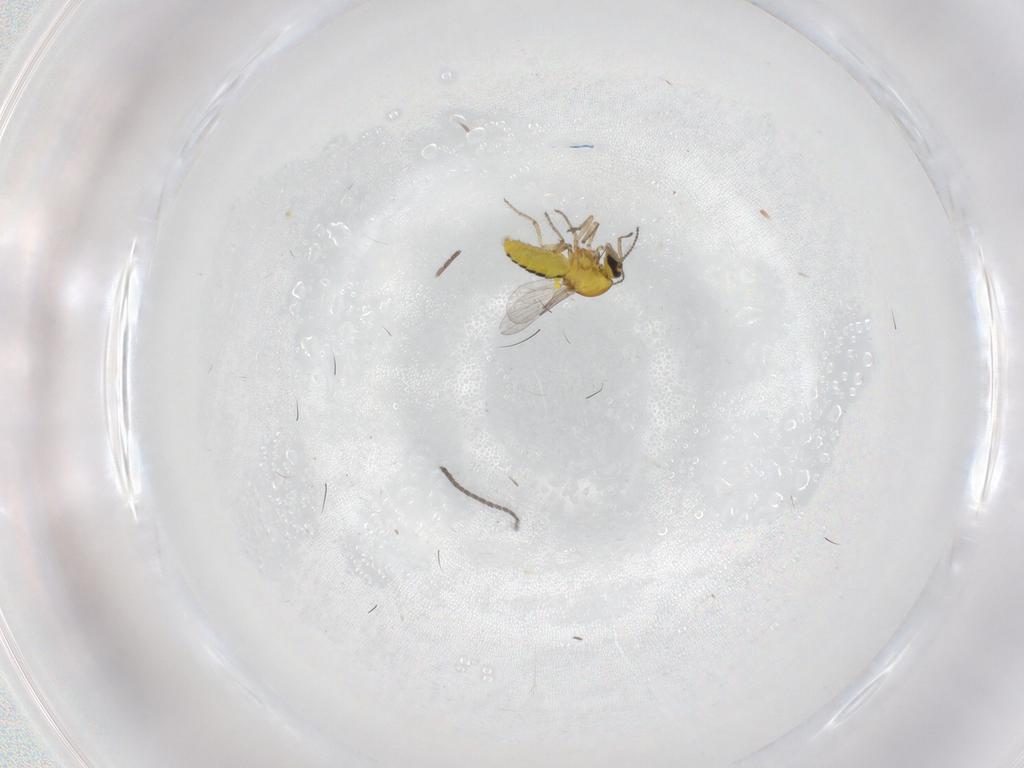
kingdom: Animalia
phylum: Arthropoda
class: Insecta
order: Diptera
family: Sciaridae
